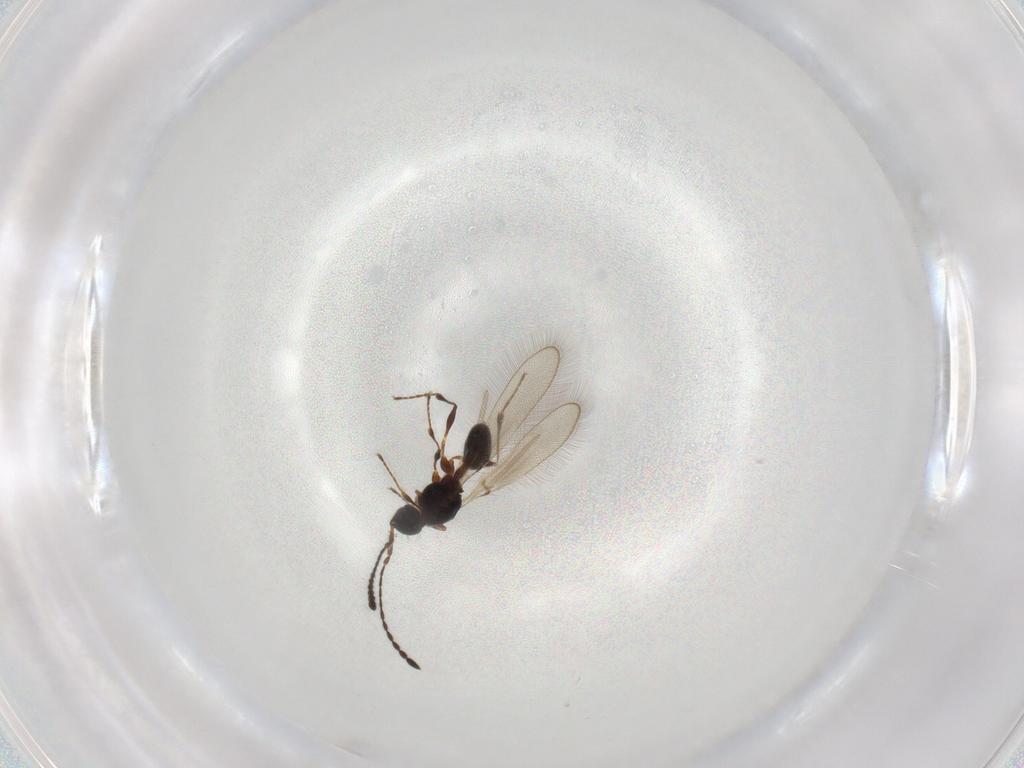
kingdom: Animalia
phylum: Arthropoda
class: Insecta
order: Hymenoptera
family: Diapriidae
